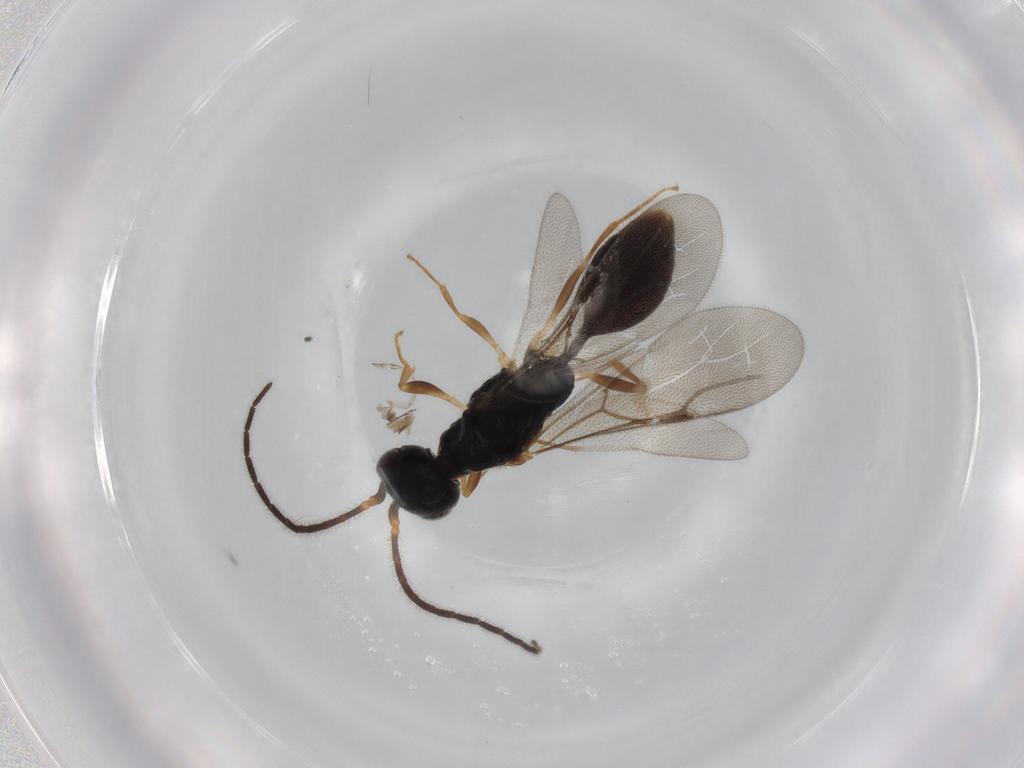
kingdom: Animalia
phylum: Arthropoda
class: Insecta
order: Hymenoptera
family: Bethylidae
